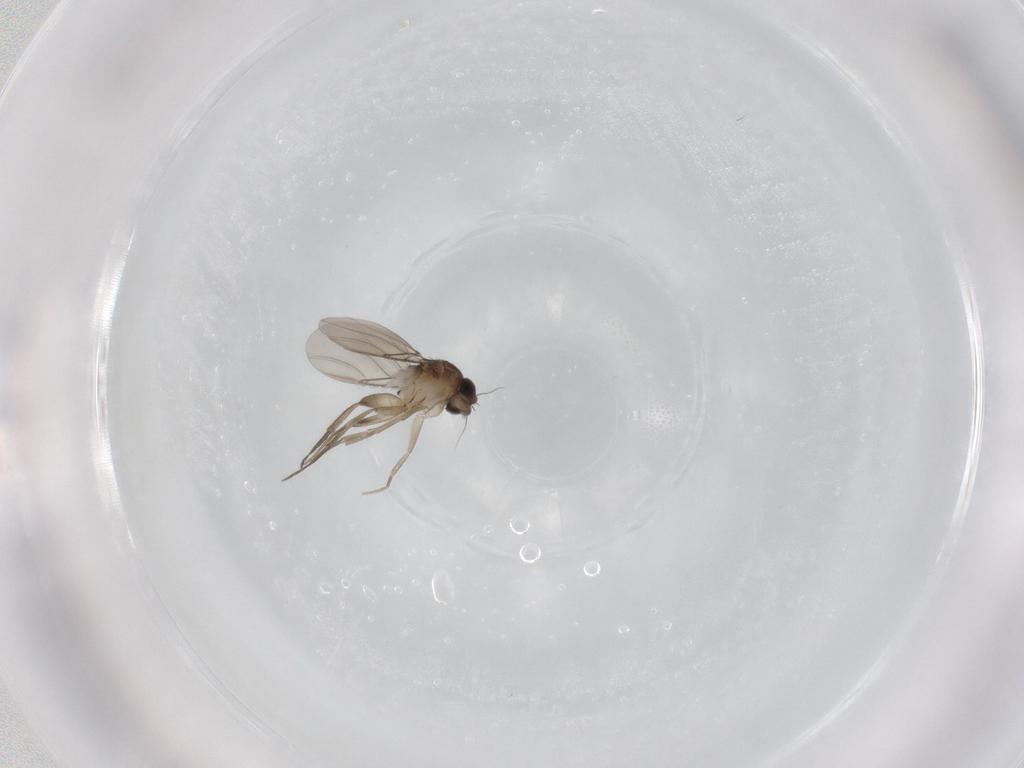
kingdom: Animalia
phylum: Arthropoda
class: Insecta
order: Diptera
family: Phoridae
